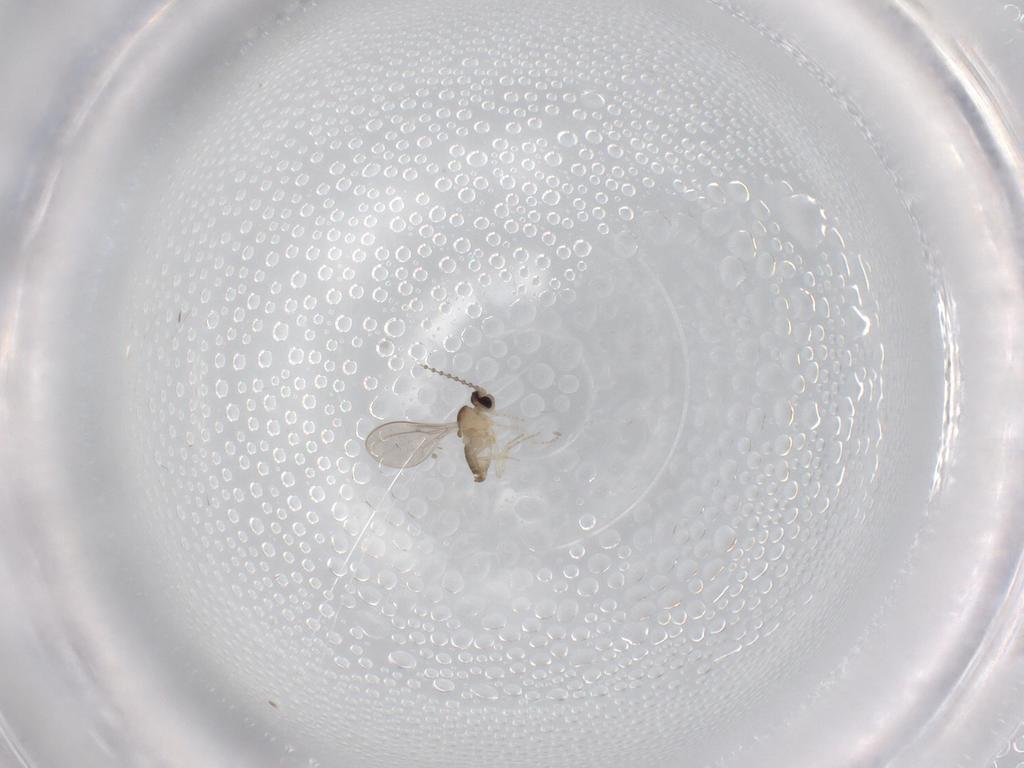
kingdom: Animalia
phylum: Arthropoda
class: Insecta
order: Diptera
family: Cecidomyiidae
